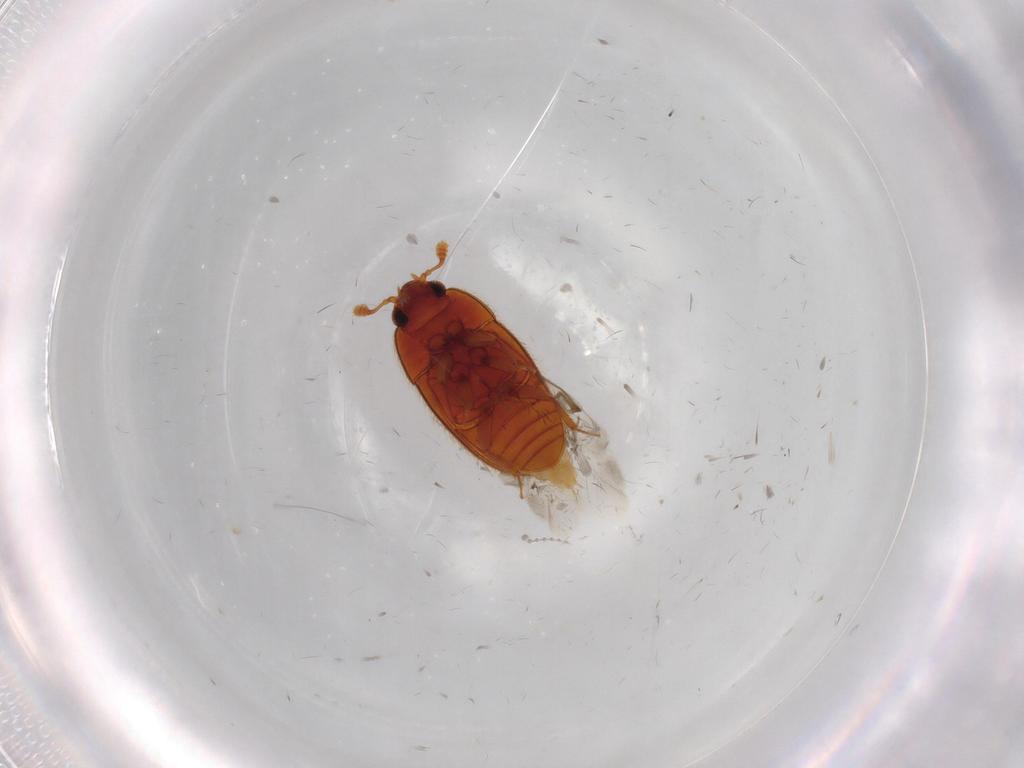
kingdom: Animalia
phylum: Arthropoda
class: Insecta
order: Coleoptera
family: Biphyllidae
